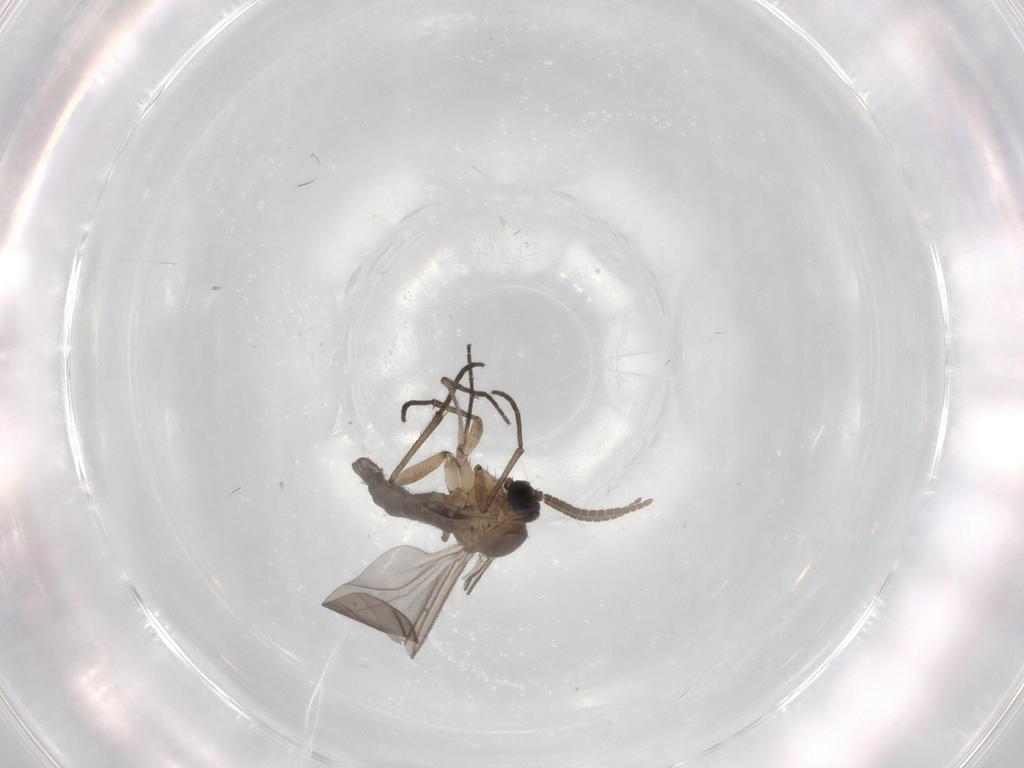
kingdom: Animalia
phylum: Arthropoda
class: Insecta
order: Diptera
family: Sciaridae
